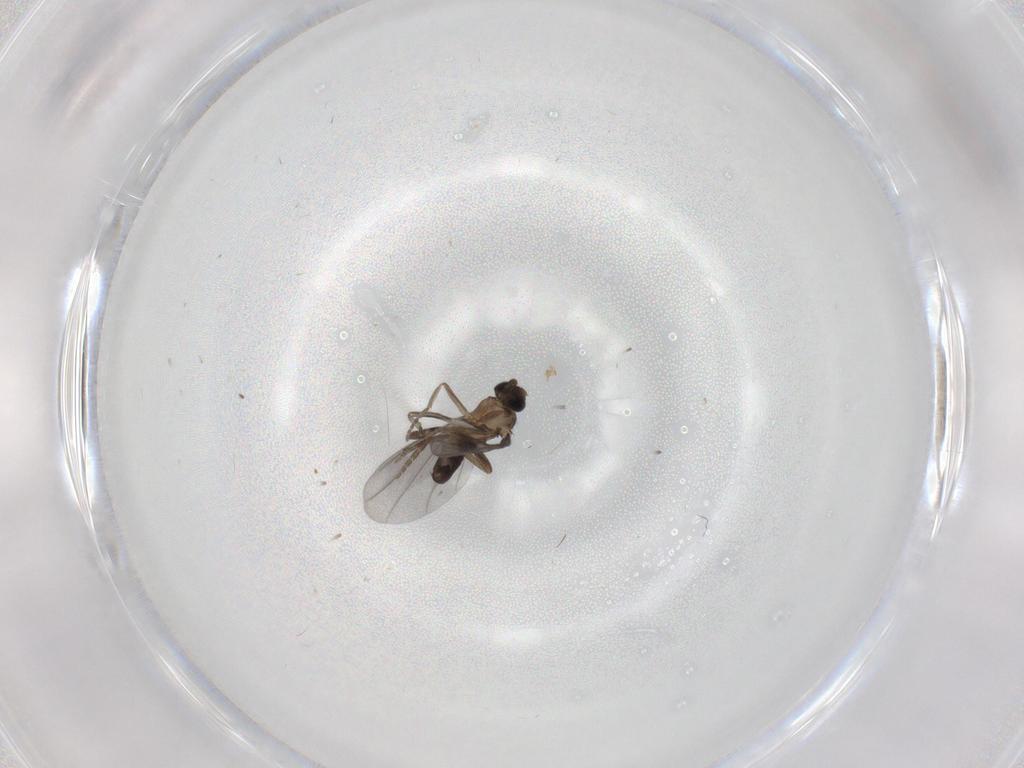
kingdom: Animalia
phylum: Arthropoda
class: Insecta
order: Diptera
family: Phoridae
